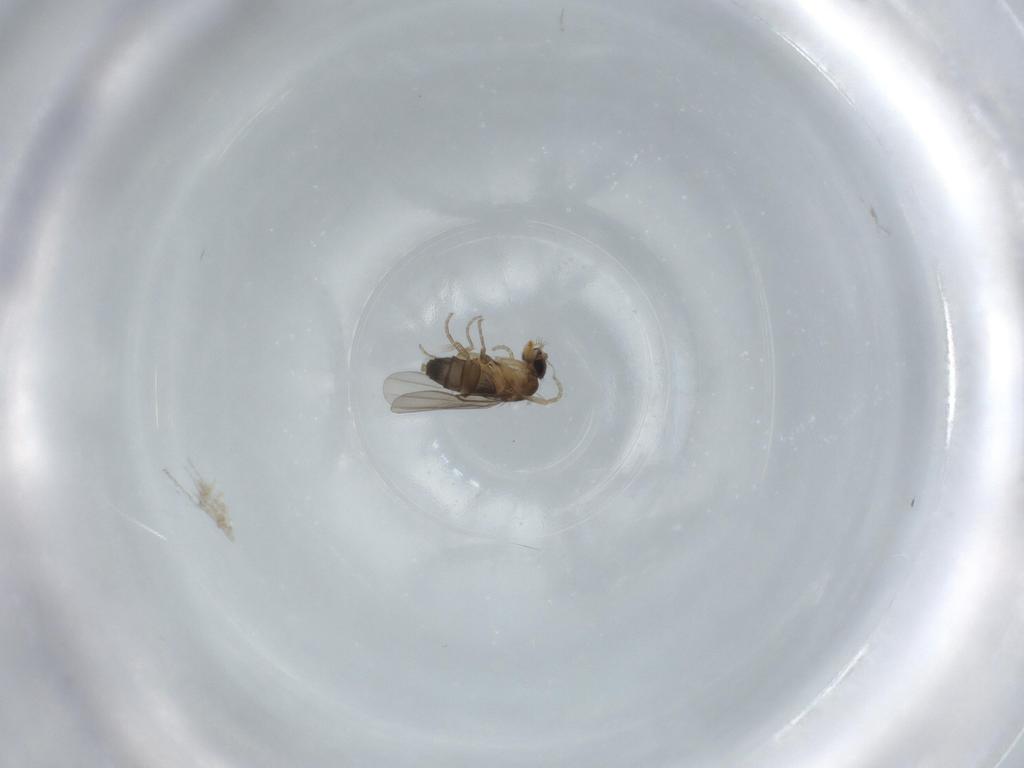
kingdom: Animalia
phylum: Arthropoda
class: Insecta
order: Diptera
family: Phoridae
